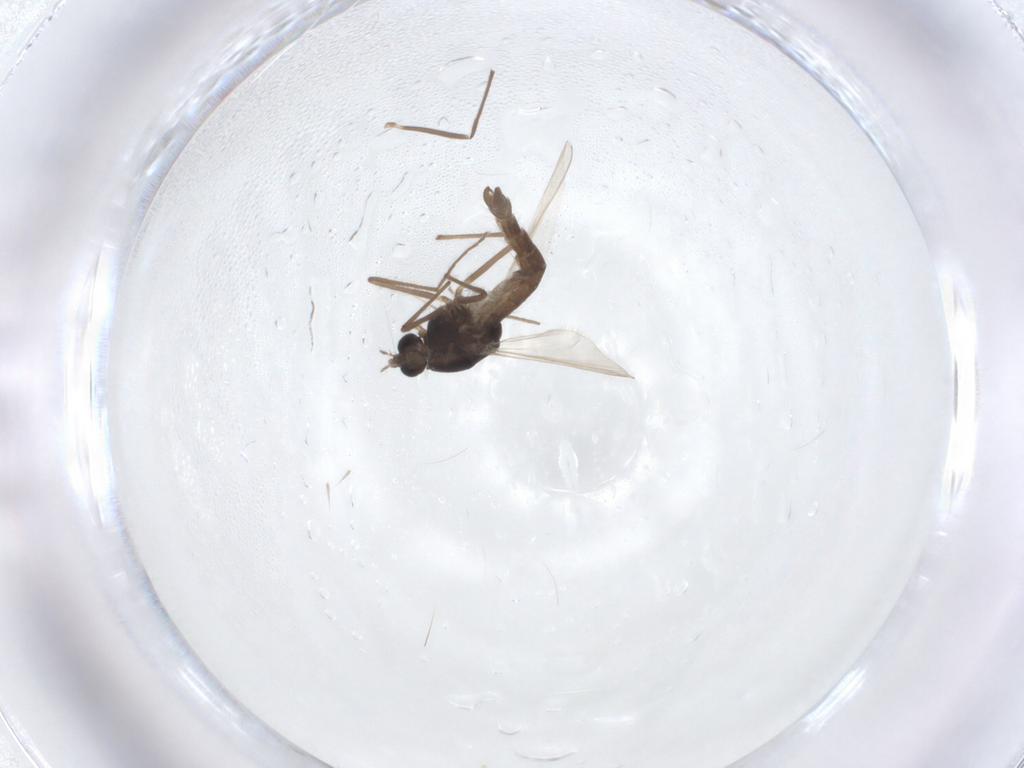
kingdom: Animalia
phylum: Arthropoda
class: Insecta
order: Diptera
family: Chironomidae
